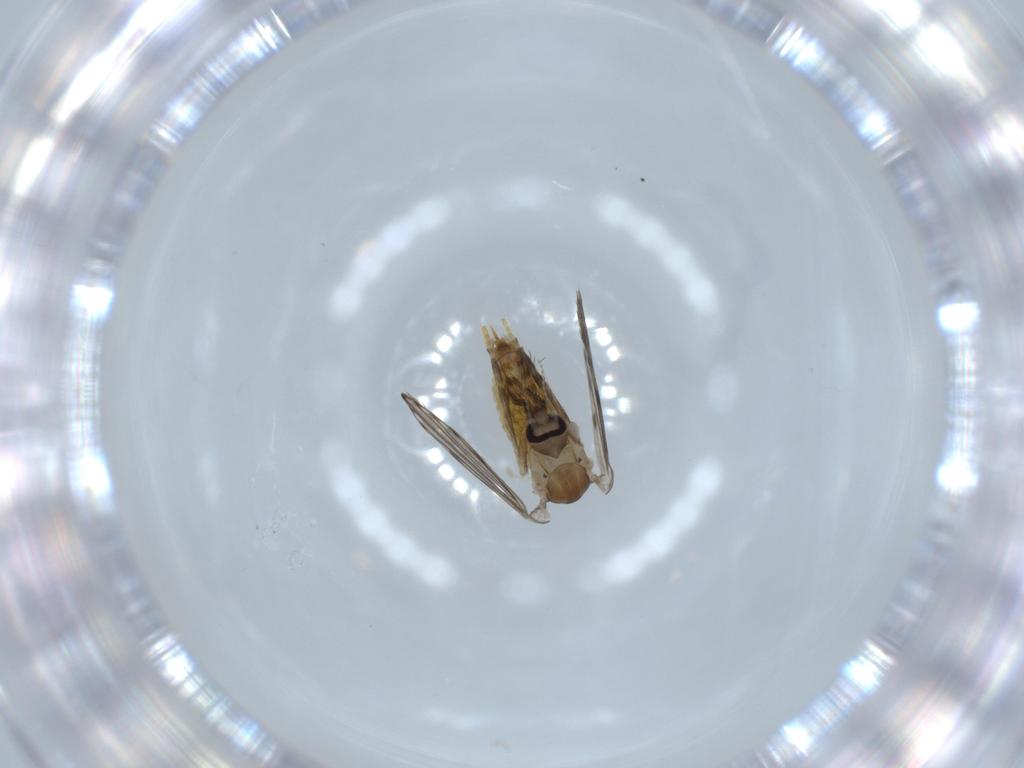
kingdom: Animalia
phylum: Arthropoda
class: Insecta
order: Diptera
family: Psychodidae
